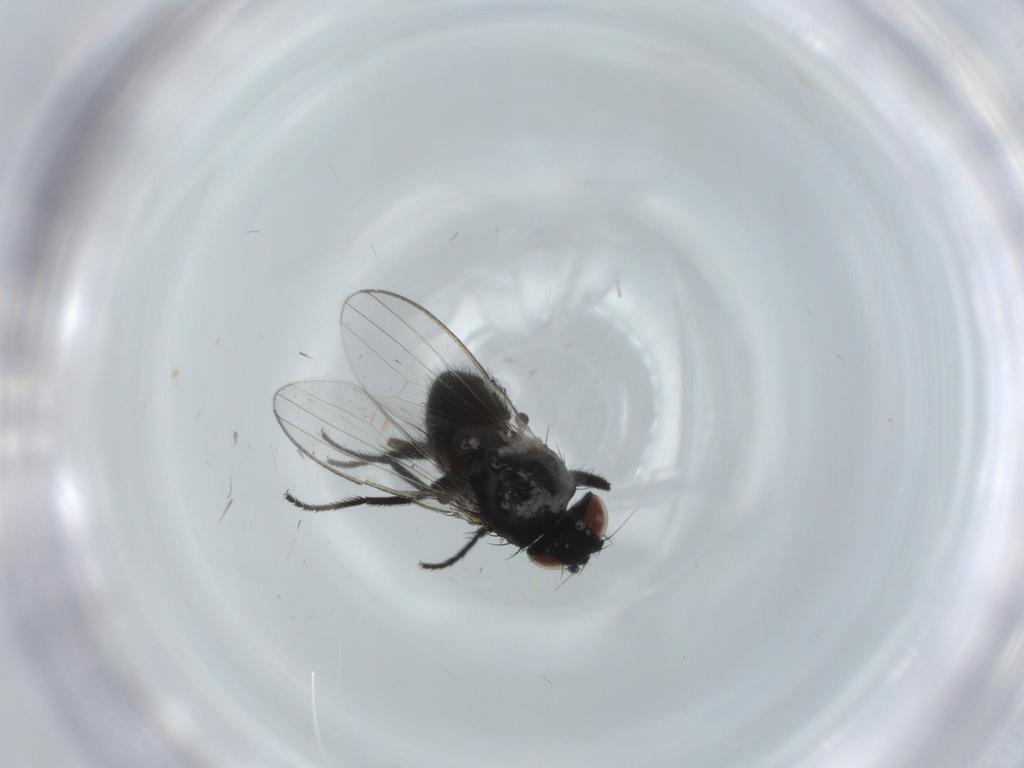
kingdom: Animalia
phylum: Arthropoda
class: Insecta
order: Diptera
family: Milichiidae
